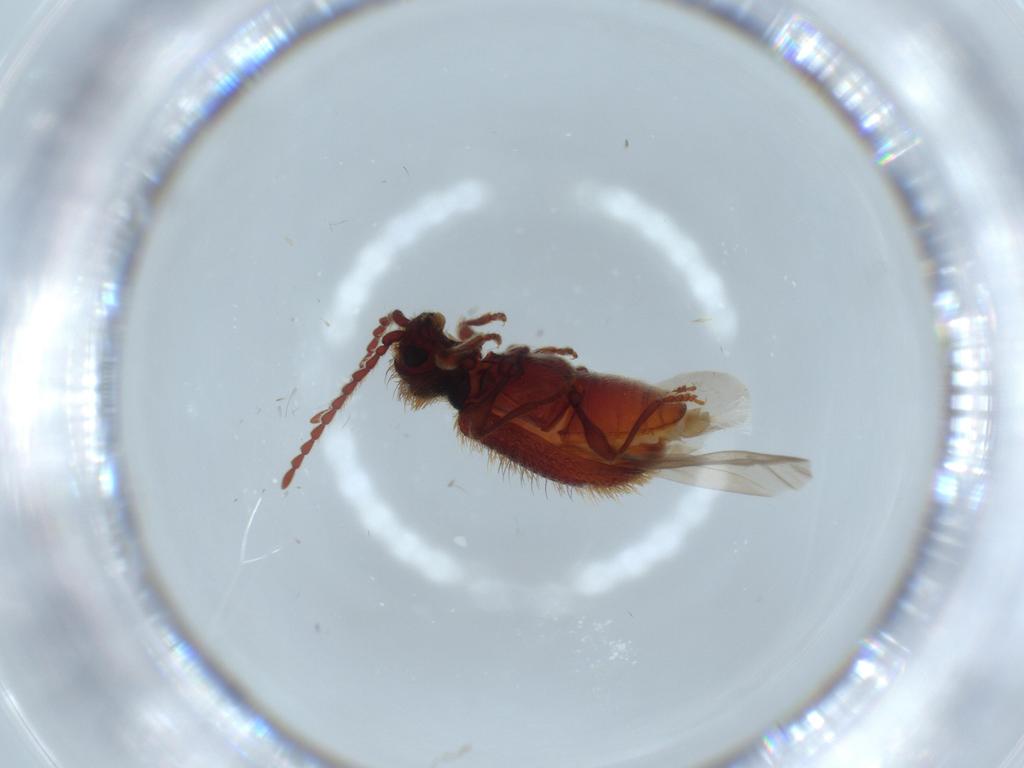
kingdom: Animalia
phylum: Arthropoda
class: Insecta
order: Coleoptera
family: Ptinidae
